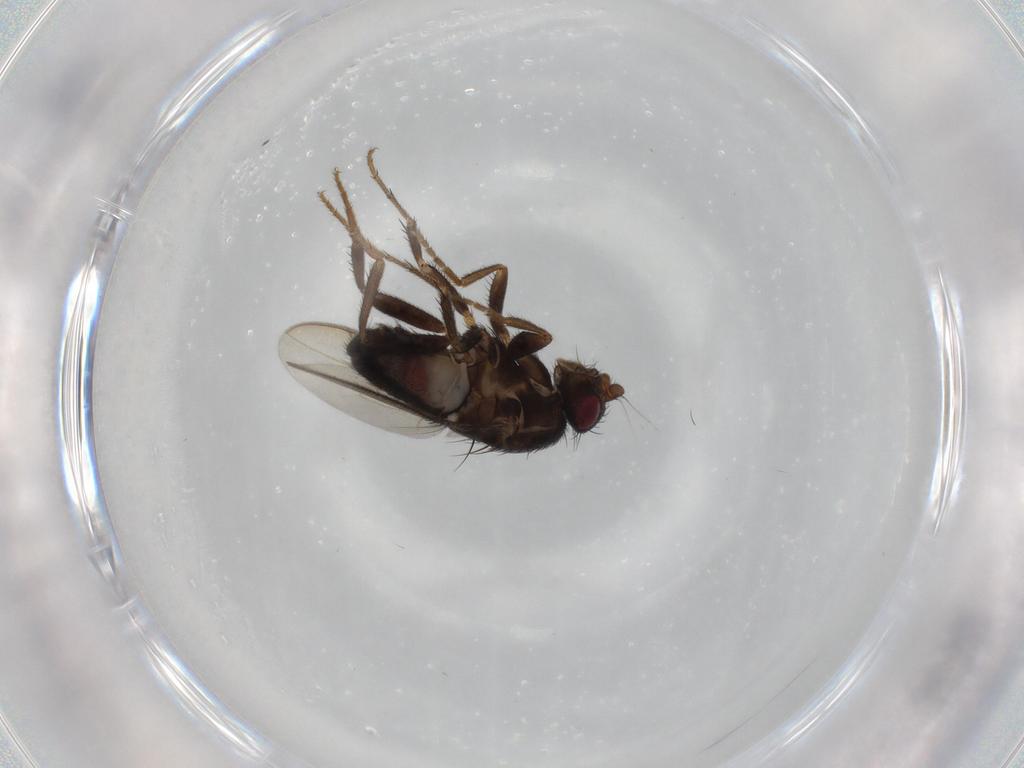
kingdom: Animalia
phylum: Arthropoda
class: Insecta
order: Diptera
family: Sphaeroceridae
